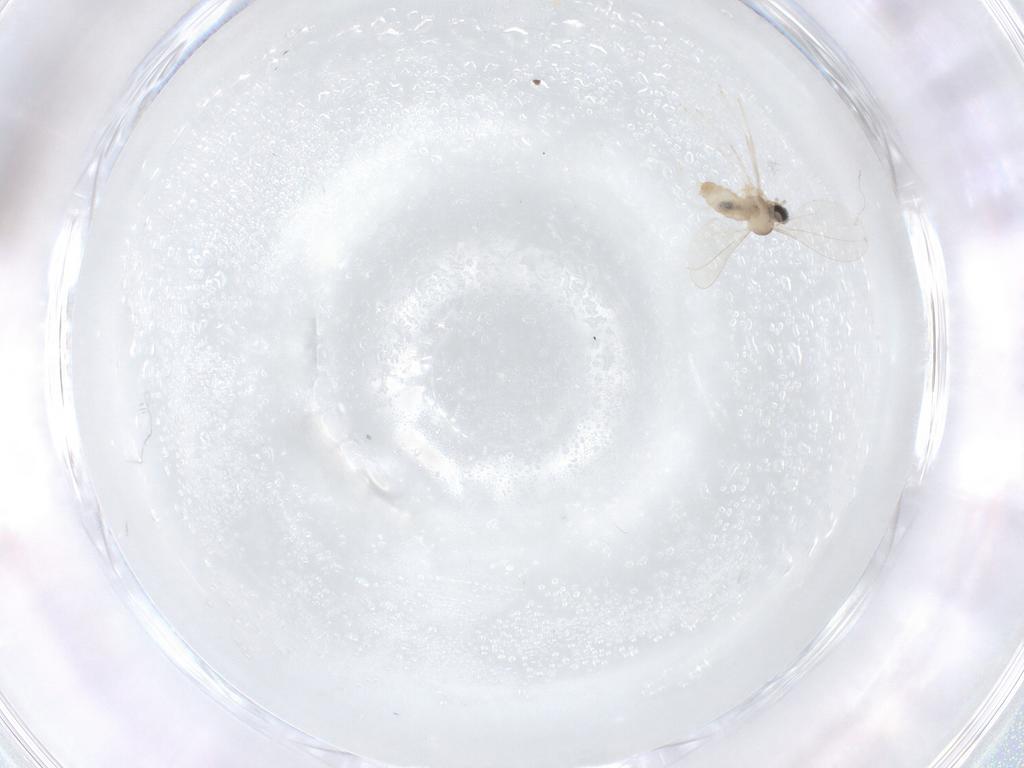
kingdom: Animalia
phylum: Arthropoda
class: Insecta
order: Diptera
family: Cecidomyiidae
